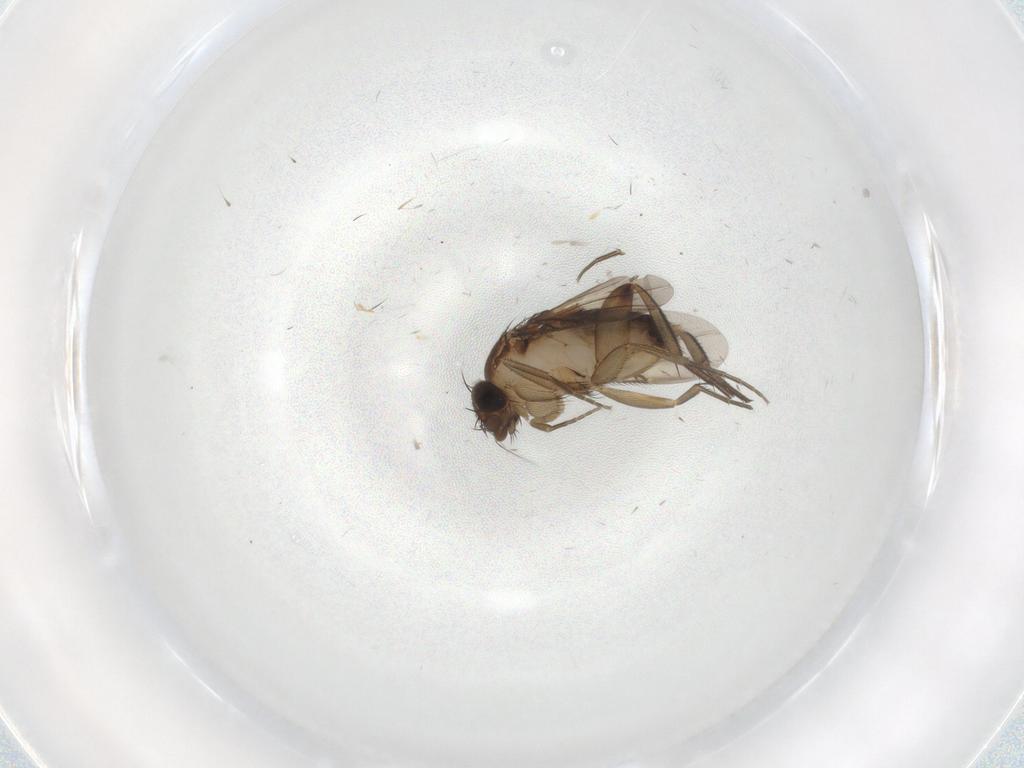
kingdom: Animalia
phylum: Arthropoda
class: Insecta
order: Diptera
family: Phoridae
